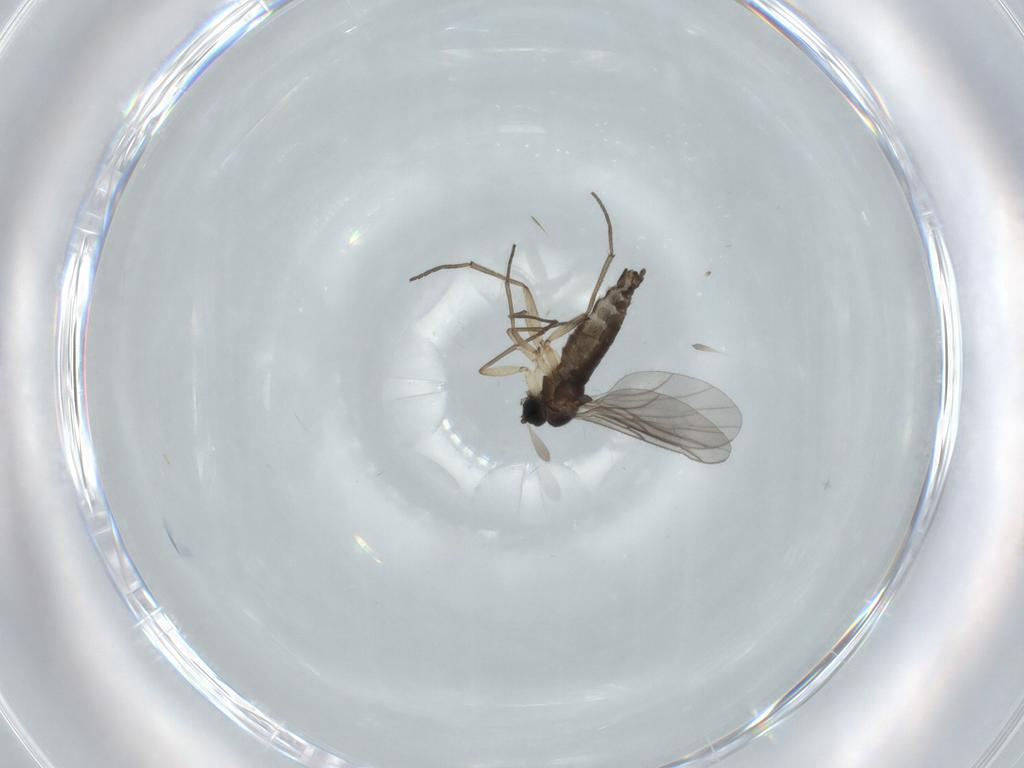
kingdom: Animalia
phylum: Arthropoda
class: Insecta
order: Diptera
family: Sciaridae
